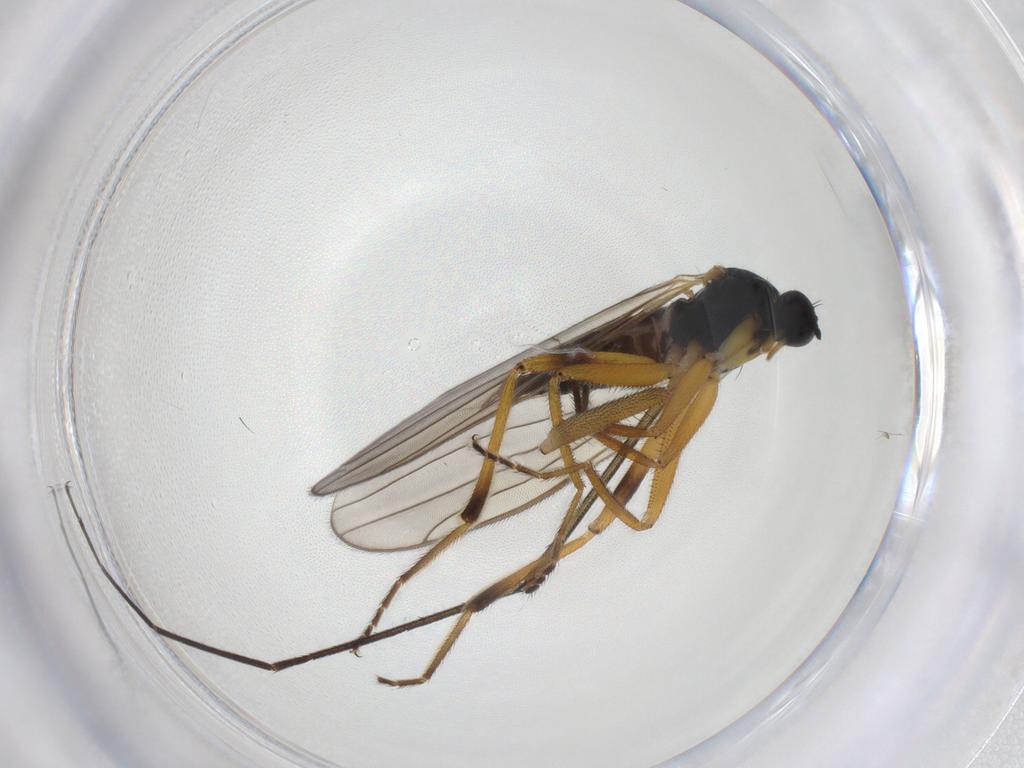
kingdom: Animalia
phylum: Arthropoda
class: Insecta
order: Diptera
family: Hybotidae
